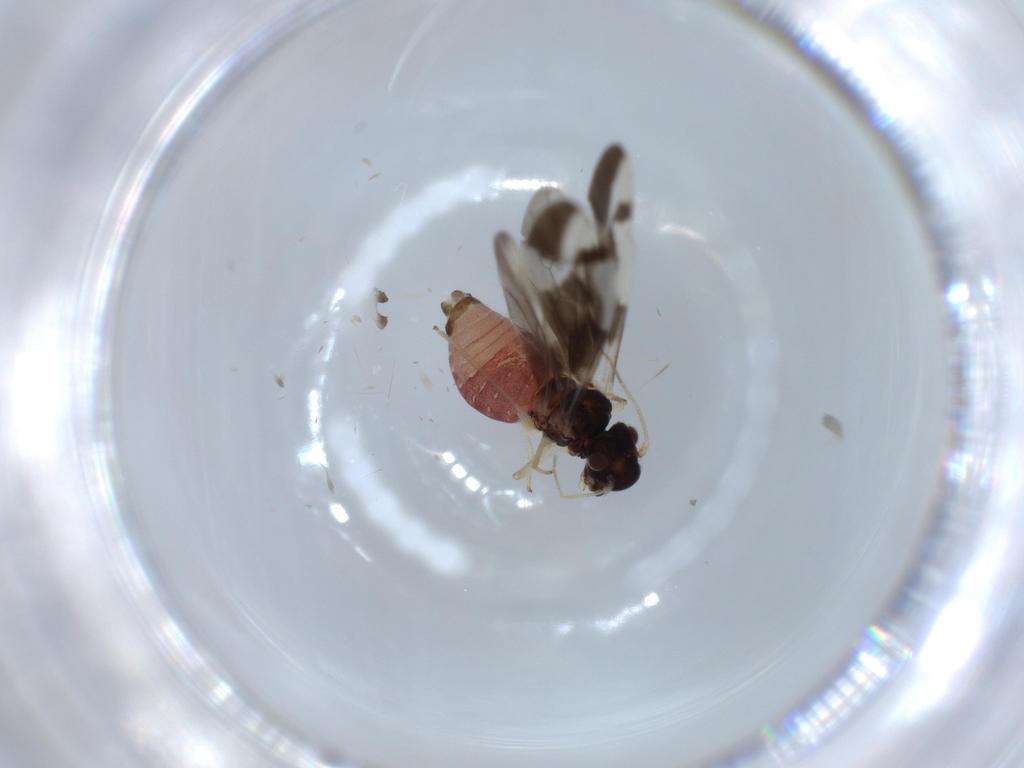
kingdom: Animalia
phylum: Arthropoda
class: Insecta
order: Psocodea
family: Caeciliusidae
